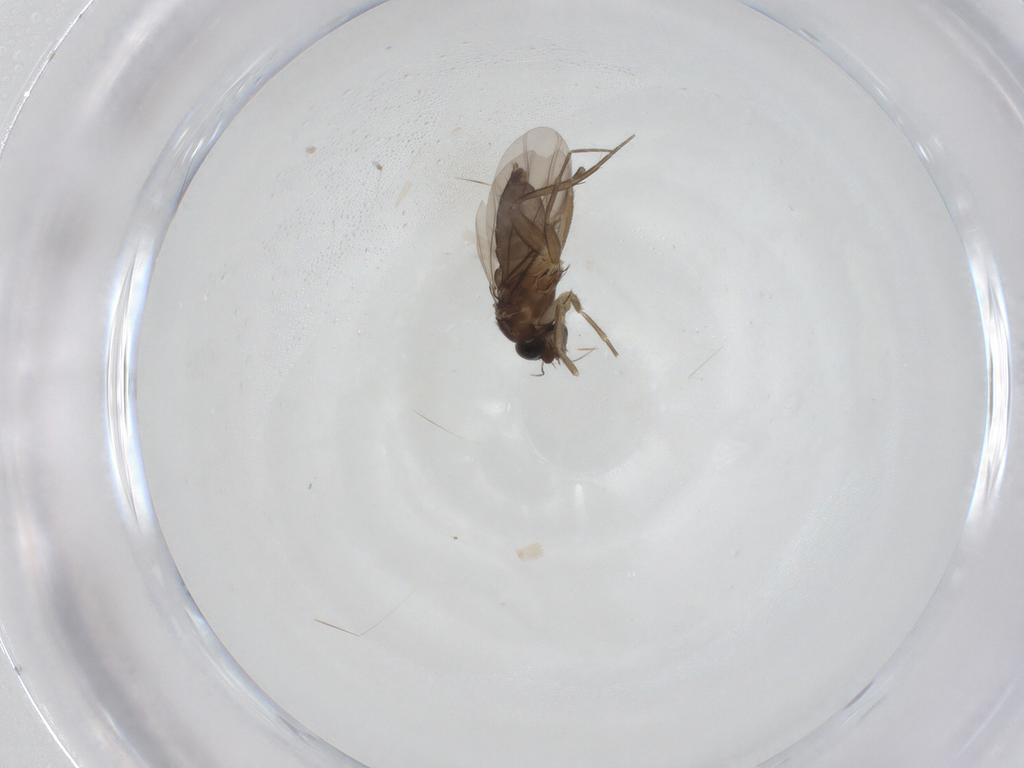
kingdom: Animalia
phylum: Arthropoda
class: Insecta
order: Diptera
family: Phoridae
